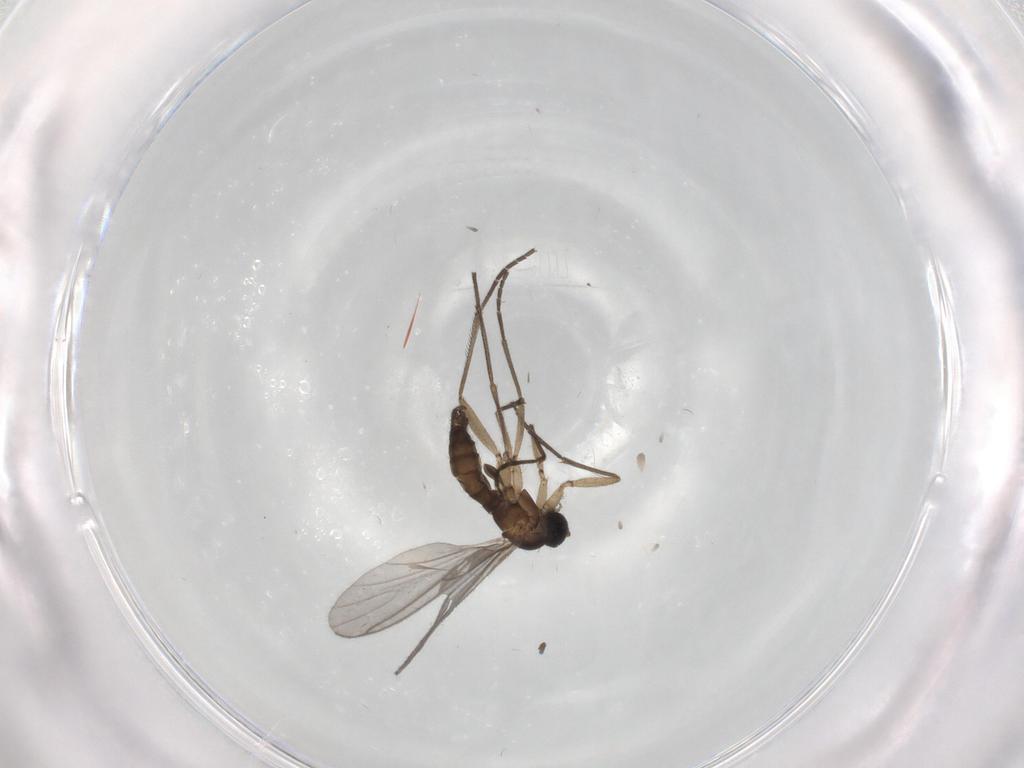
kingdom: Animalia
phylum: Arthropoda
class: Insecta
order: Diptera
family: Sciaridae
